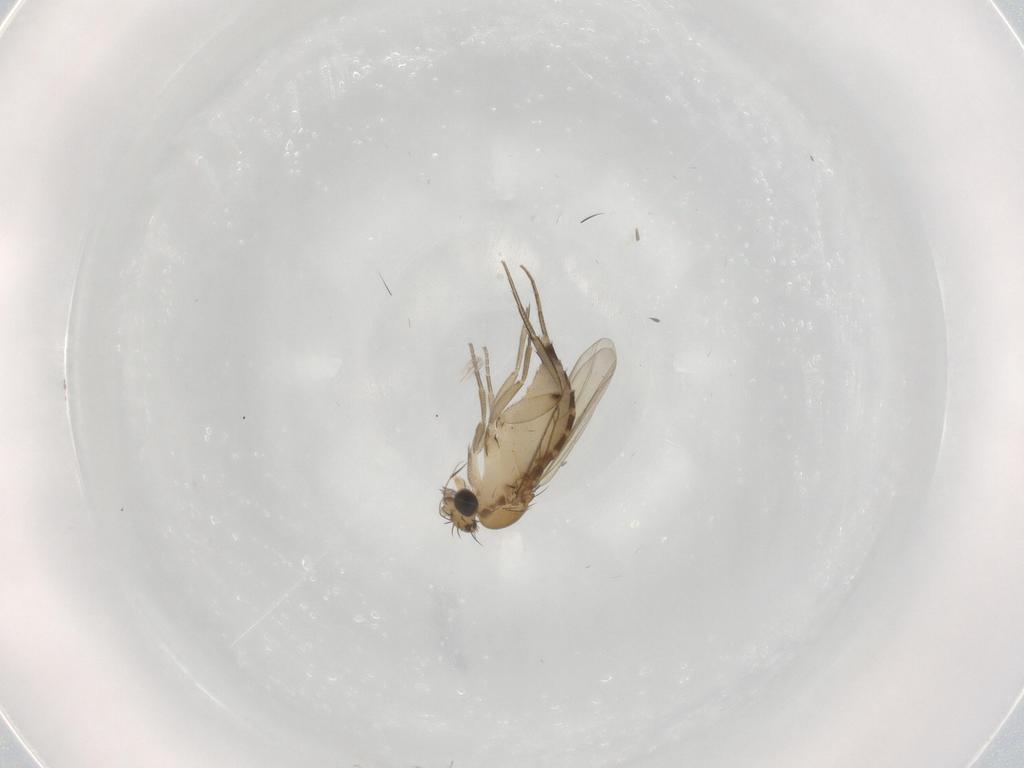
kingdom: Animalia
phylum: Arthropoda
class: Insecta
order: Diptera
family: Phoridae
